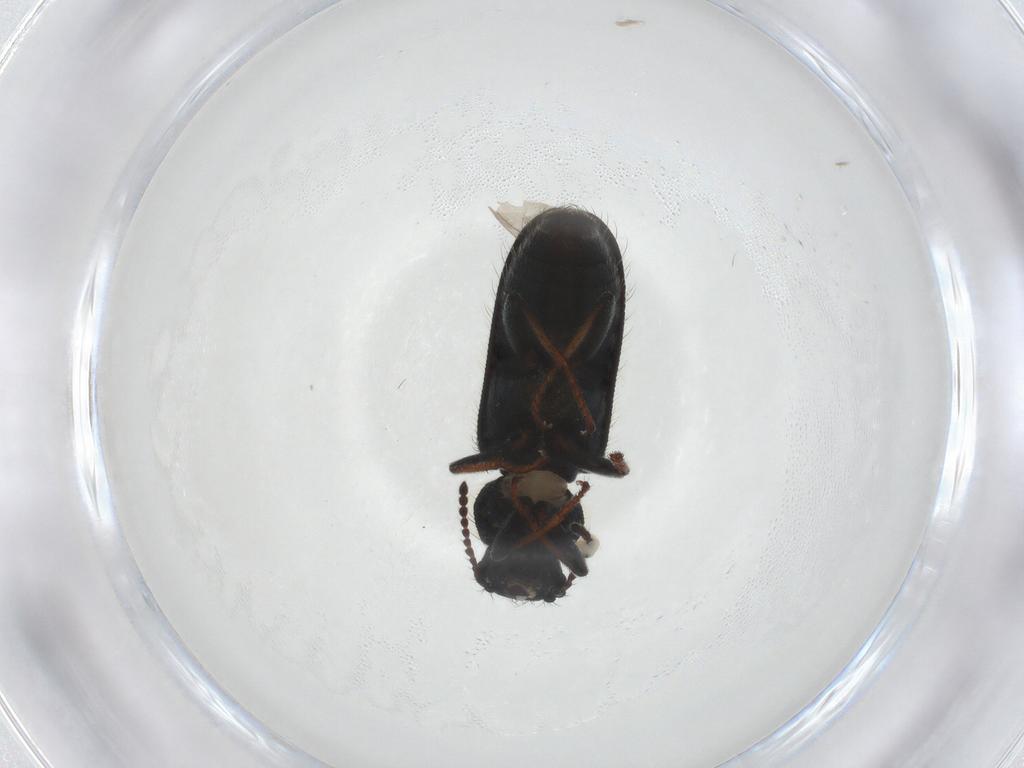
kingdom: Animalia
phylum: Arthropoda
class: Insecta
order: Coleoptera
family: Melyridae
